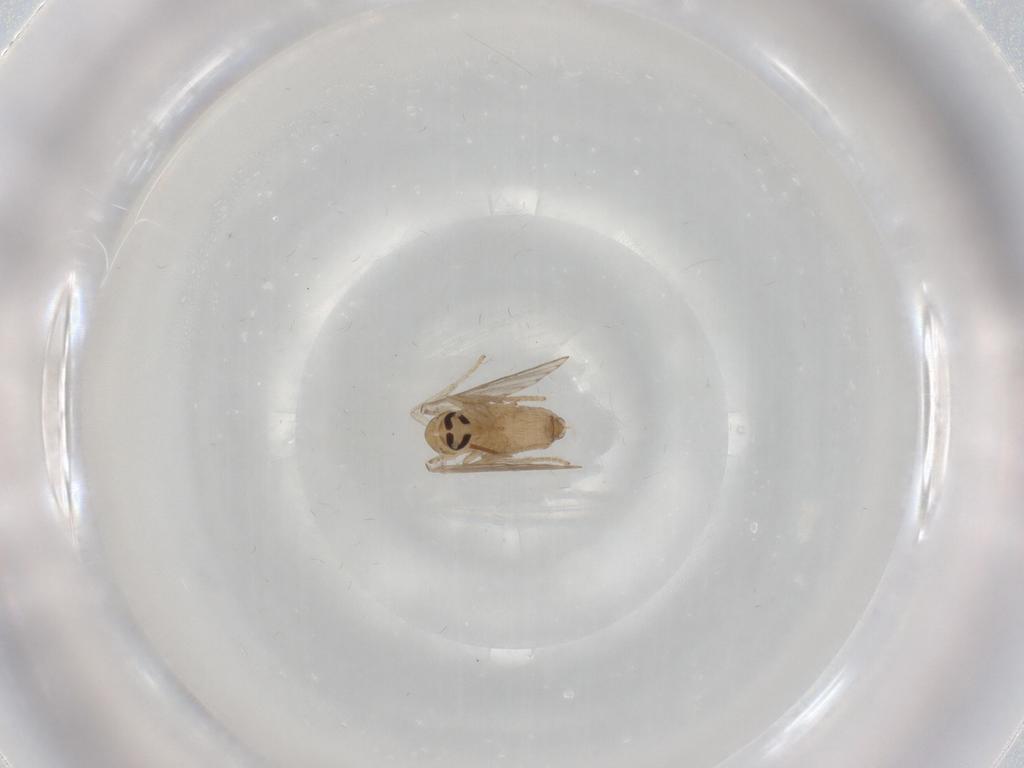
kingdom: Animalia
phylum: Arthropoda
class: Insecta
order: Diptera
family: Psychodidae
